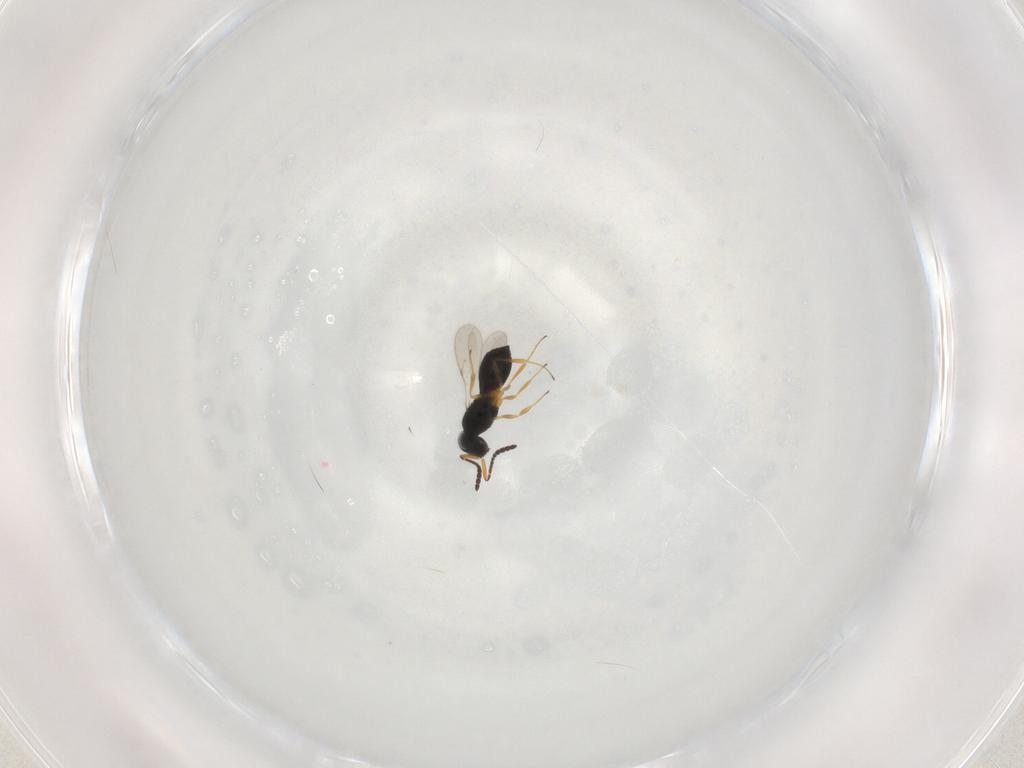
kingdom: Animalia
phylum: Arthropoda
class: Insecta
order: Hymenoptera
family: Scelionidae
